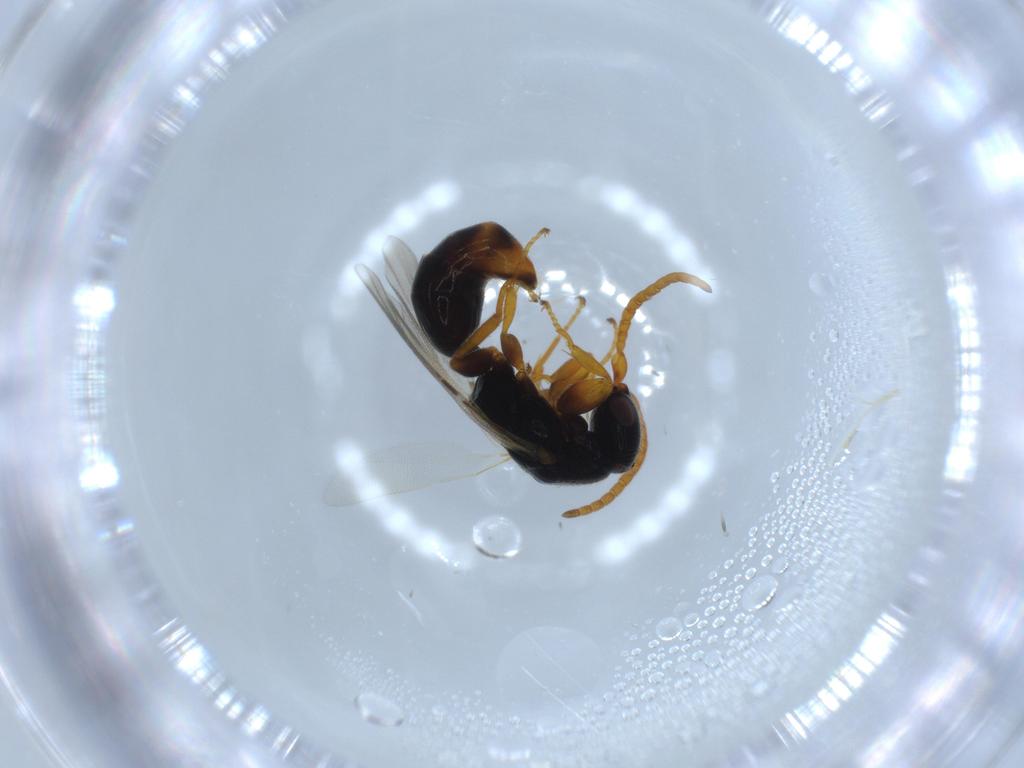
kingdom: Animalia
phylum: Arthropoda
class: Insecta
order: Hymenoptera
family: Bethylidae
